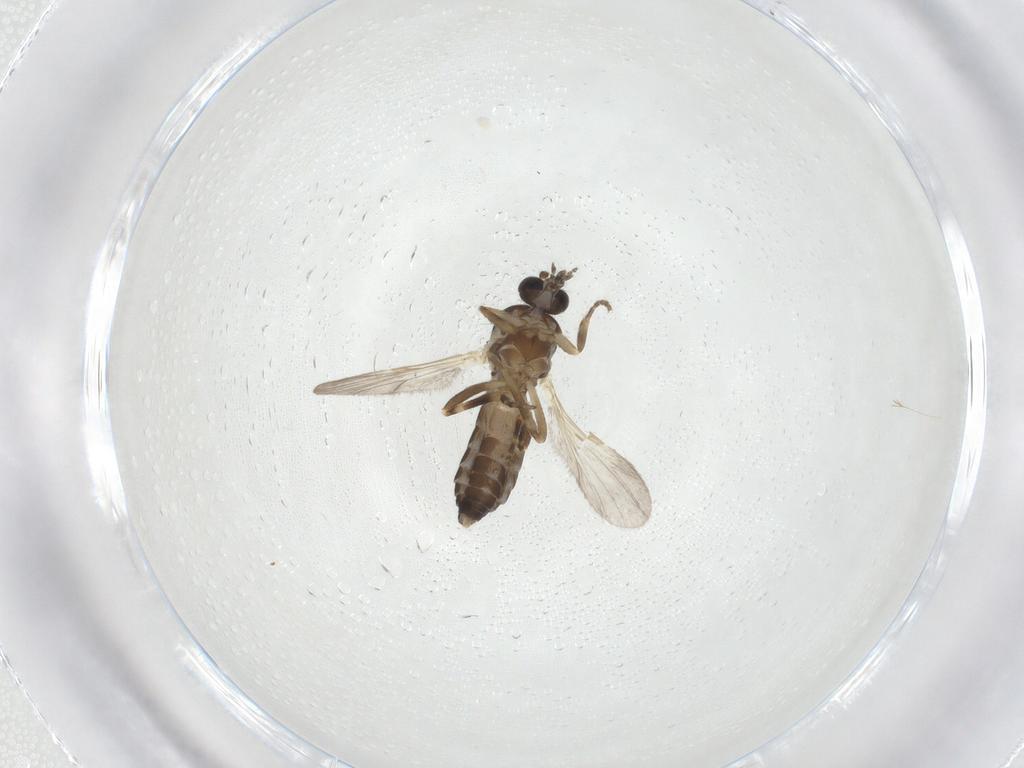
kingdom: Animalia
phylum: Arthropoda
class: Insecta
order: Diptera
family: Ceratopogonidae
